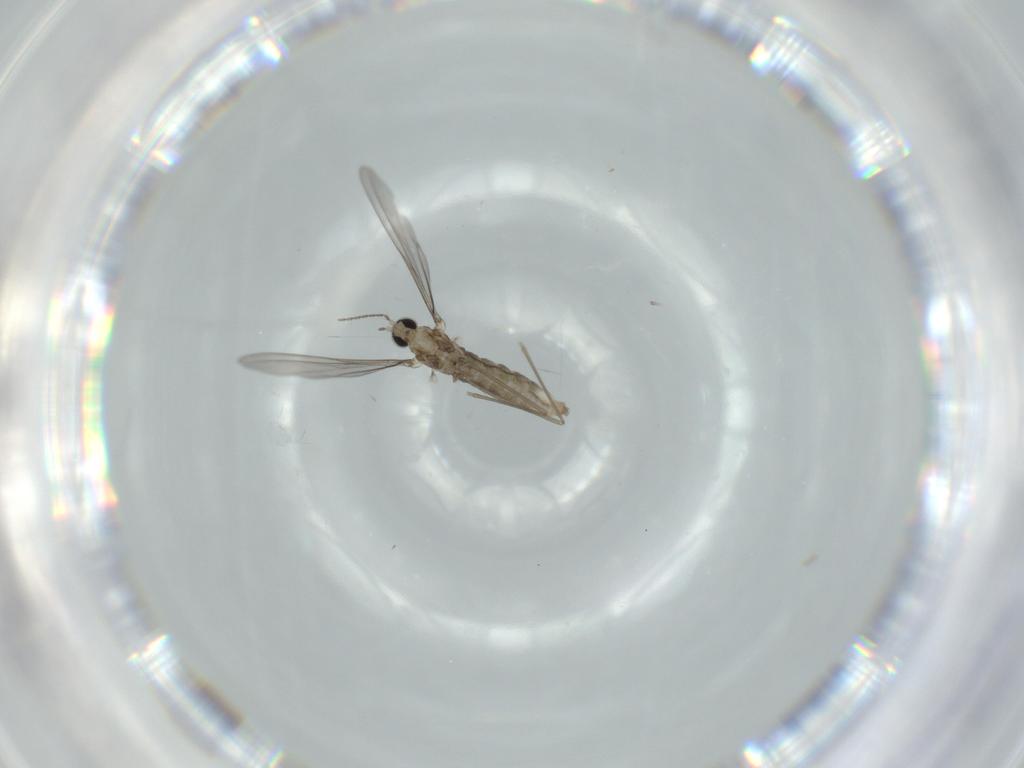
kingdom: Animalia
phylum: Arthropoda
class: Insecta
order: Diptera
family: Cecidomyiidae
